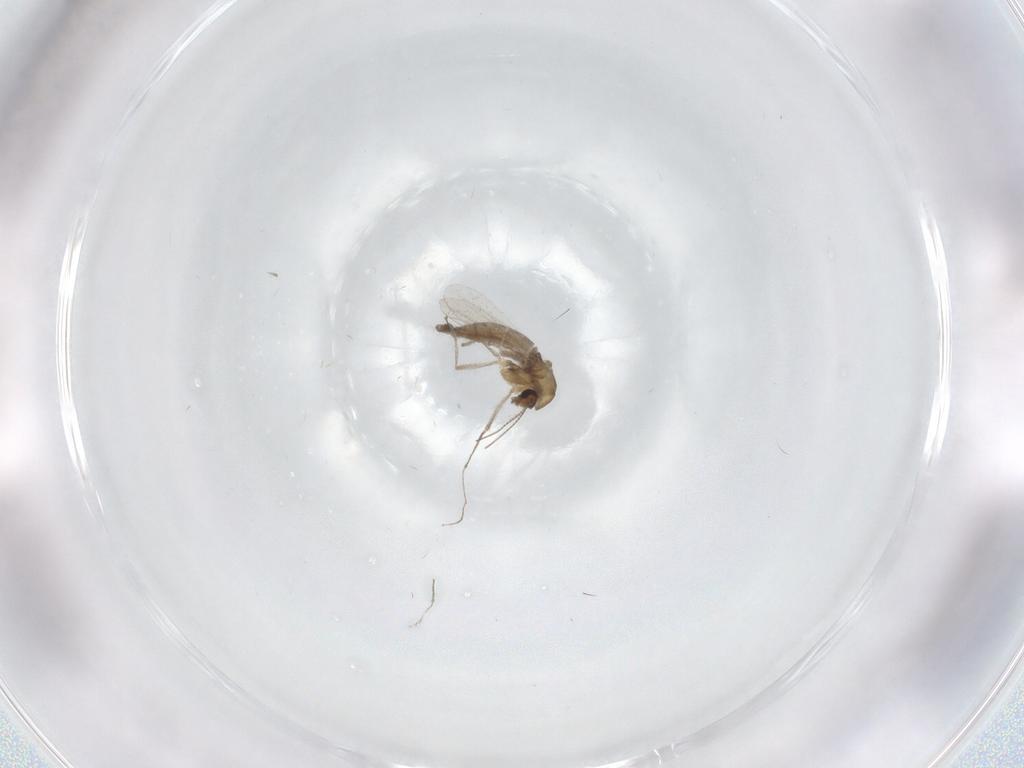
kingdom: Animalia
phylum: Arthropoda
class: Insecta
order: Diptera
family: Chironomidae
